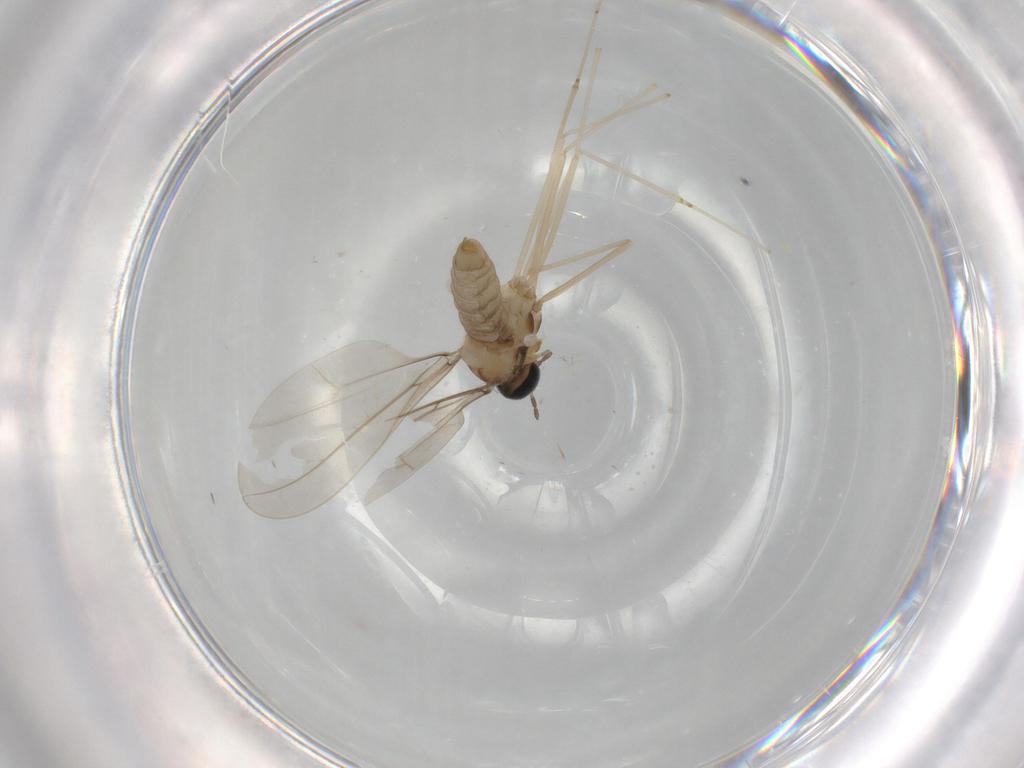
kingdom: Animalia
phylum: Arthropoda
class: Insecta
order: Diptera
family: Cecidomyiidae
